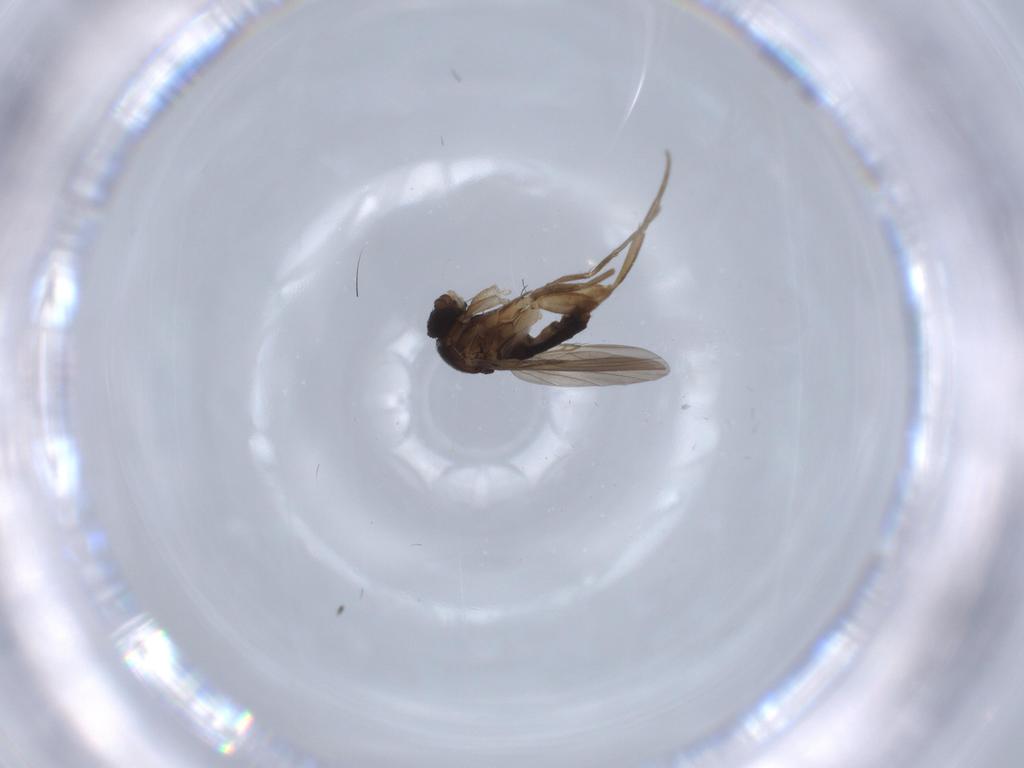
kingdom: Animalia
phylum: Arthropoda
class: Insecta
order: Diptera
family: Phoridae
